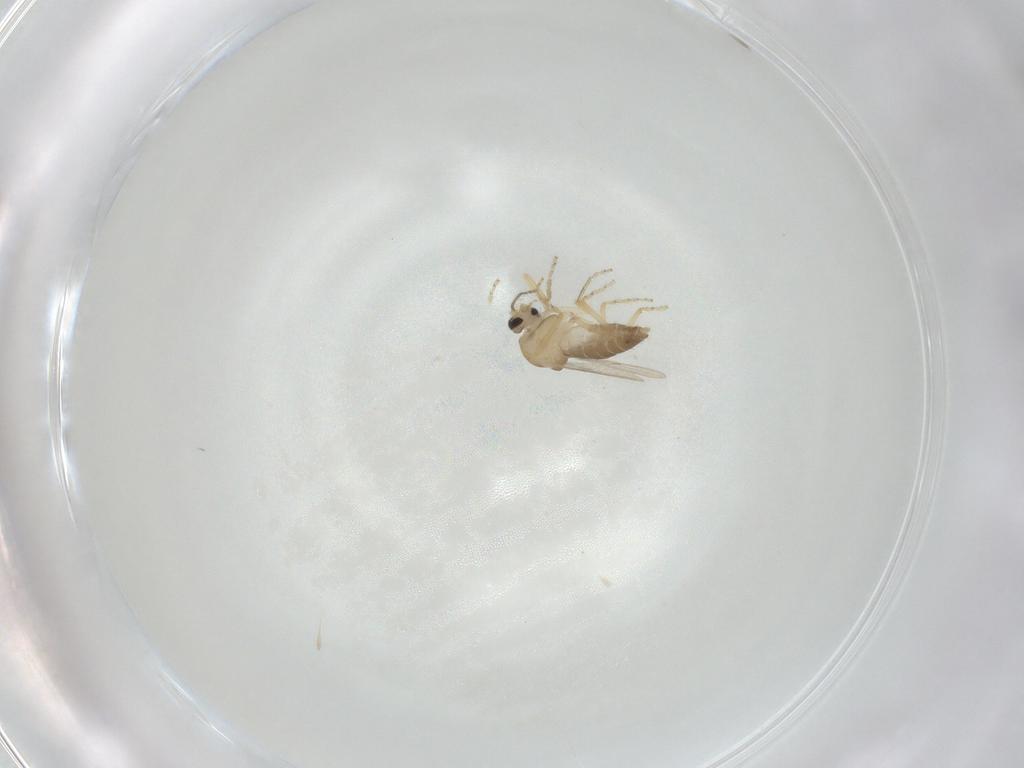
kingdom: Animalia
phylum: Arthropoda
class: Insecta
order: Diptera
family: Ceratopogonidae
